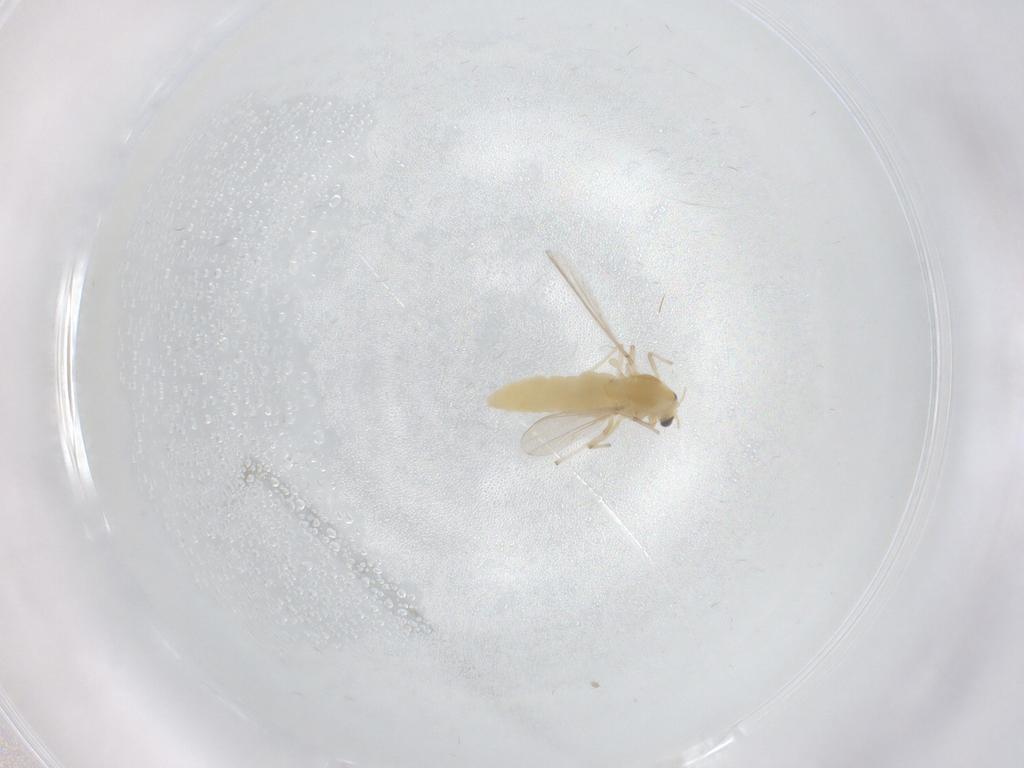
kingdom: Animalia
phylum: Arthropoda
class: Insecta
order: Diptera
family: Chironomidae
